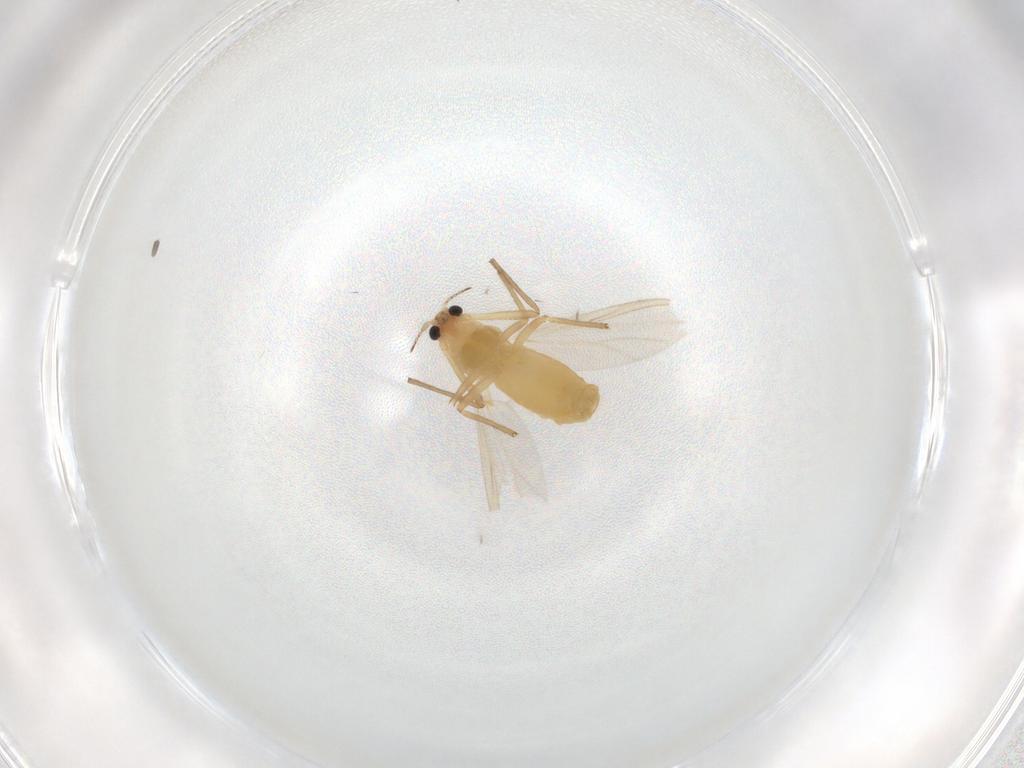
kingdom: Animalia
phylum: Arthropoda
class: Insecta
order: Diptera
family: Chironomidae
